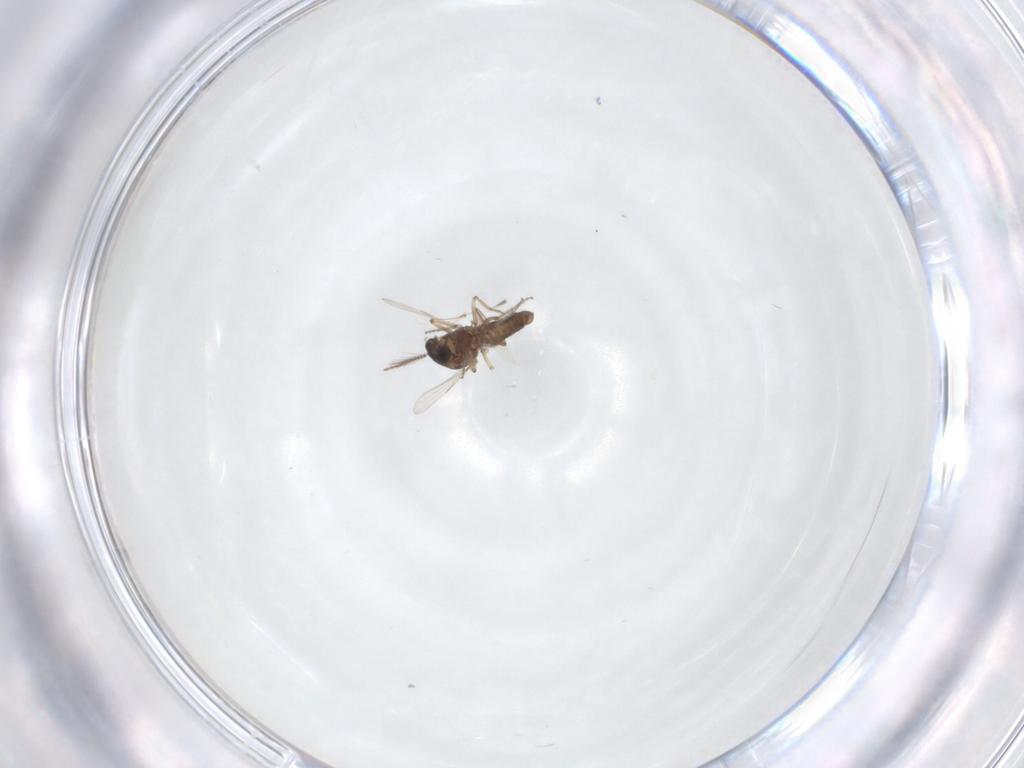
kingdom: Animalia
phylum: Arthropoda
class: Insecta
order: Diptera
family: Ceratopogonidae
